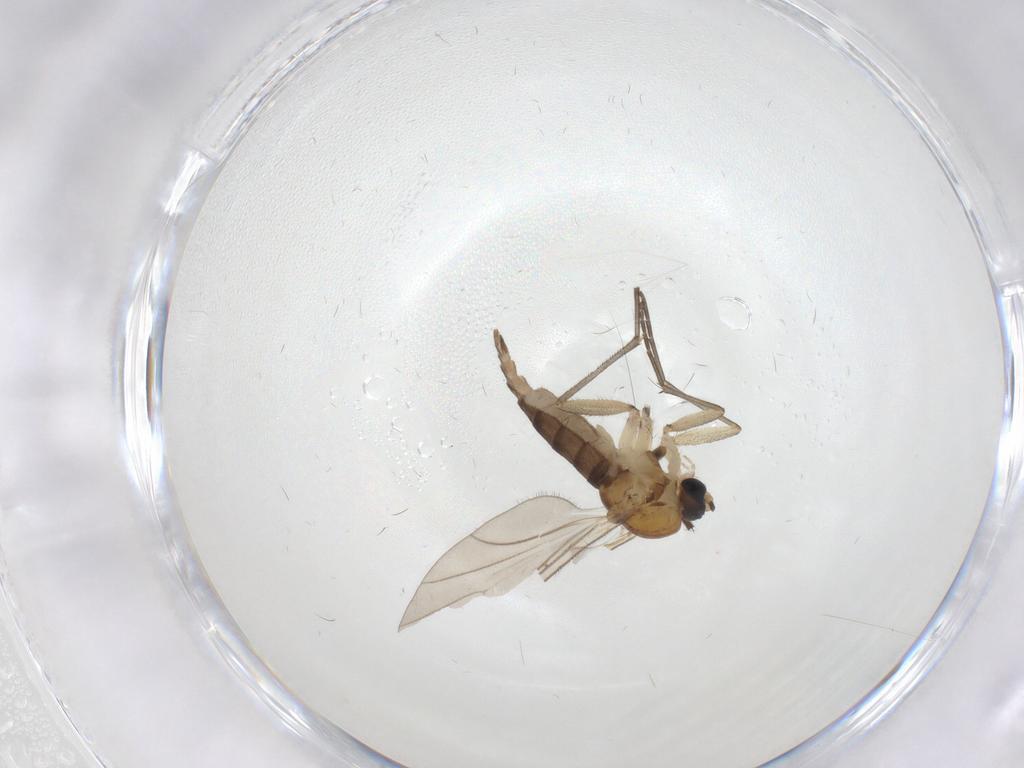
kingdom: Animalia
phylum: Arthropoda
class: Insecta
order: Diptera
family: Sciaridae
